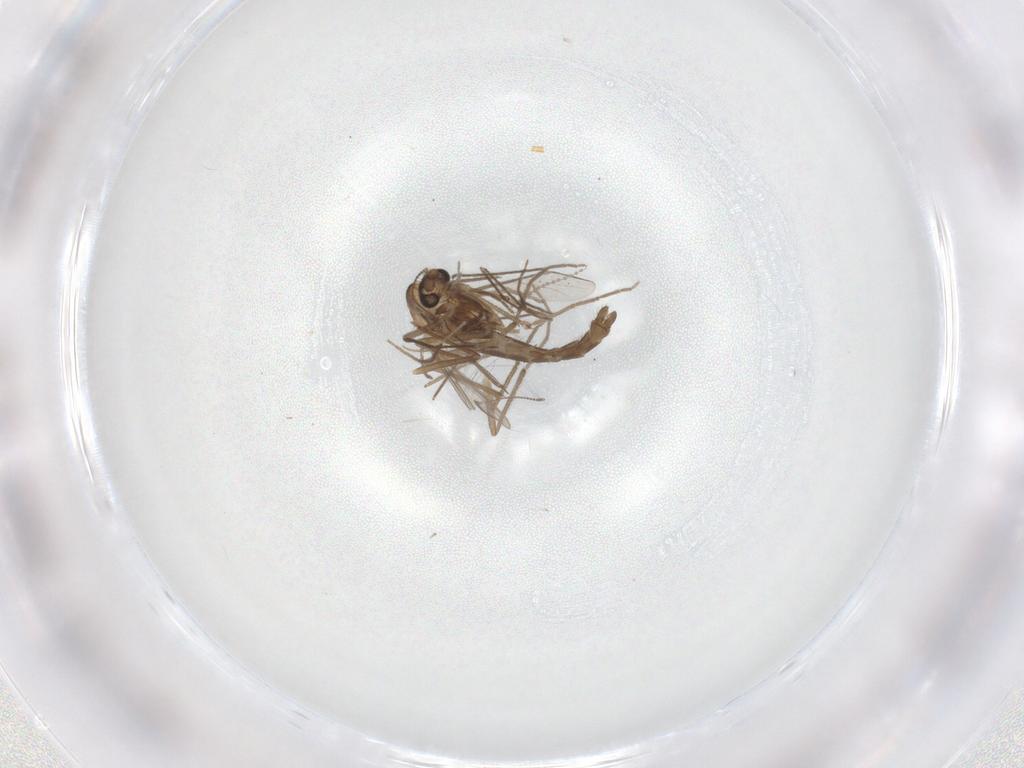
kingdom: Animalia
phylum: Arthropoda
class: Insecta
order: Diptera
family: Chironomidae
